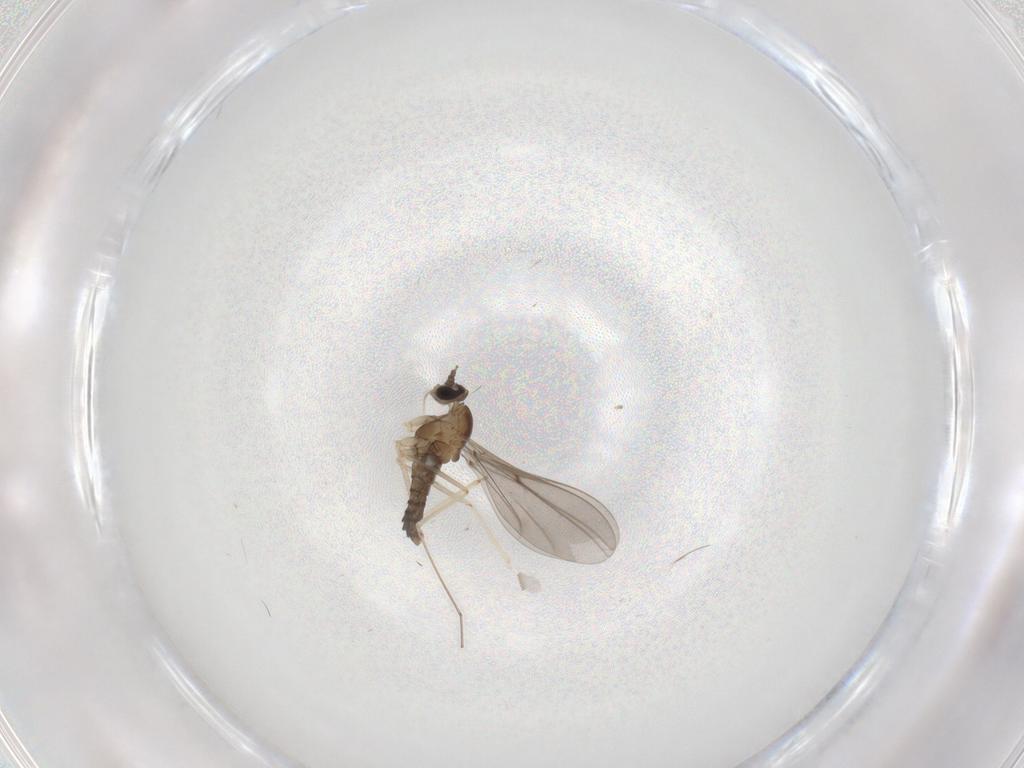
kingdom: Animalia
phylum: Arthropoda
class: Insecta
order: Diptera
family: Cecidomyiidae
